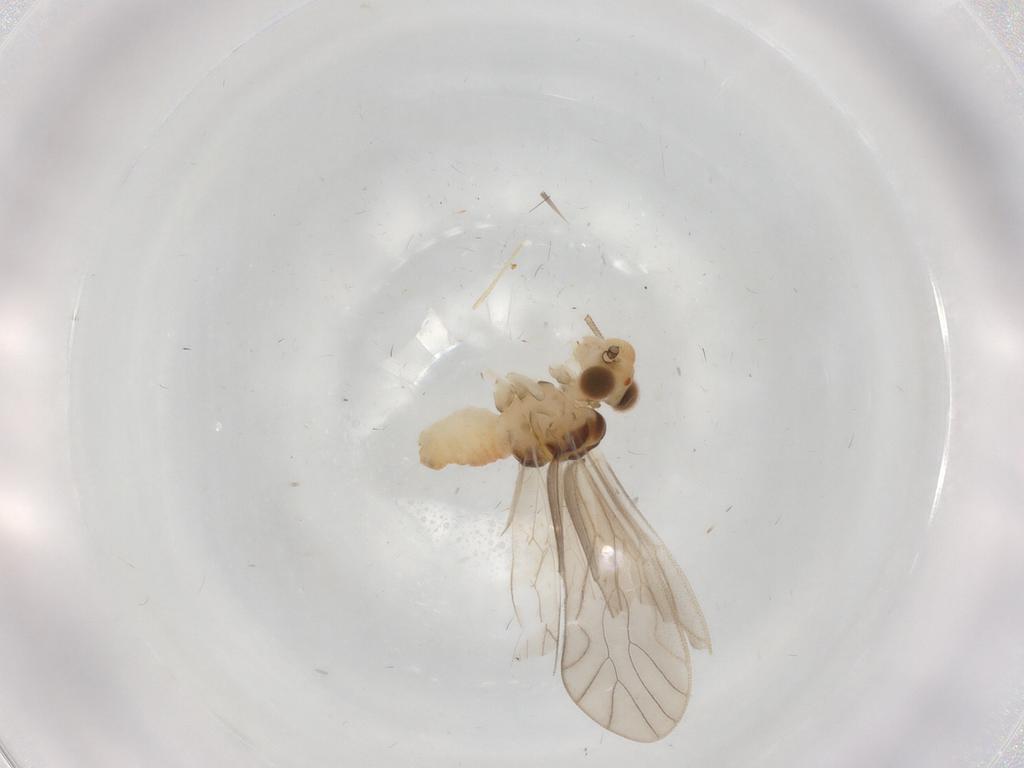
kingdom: Animalia
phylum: Arthropoda
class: Insecta
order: Psocodea
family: Caeciliusidae
